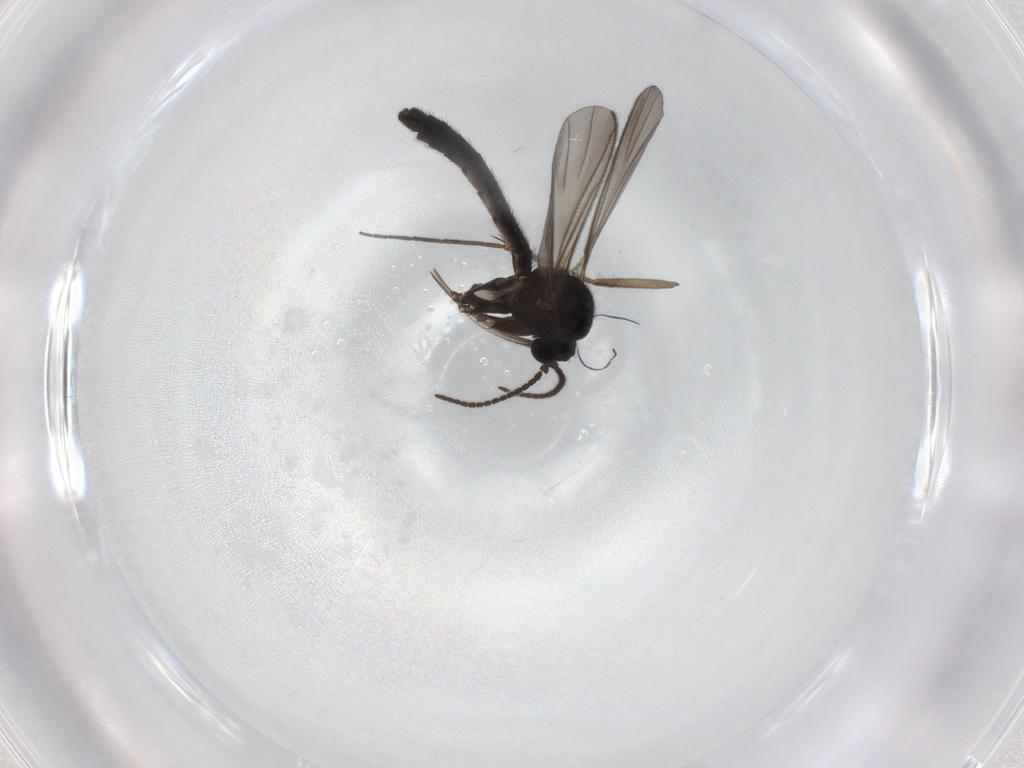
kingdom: Animalia
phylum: Arthropoda
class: Insecta
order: Diptera
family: Keroplatidae
